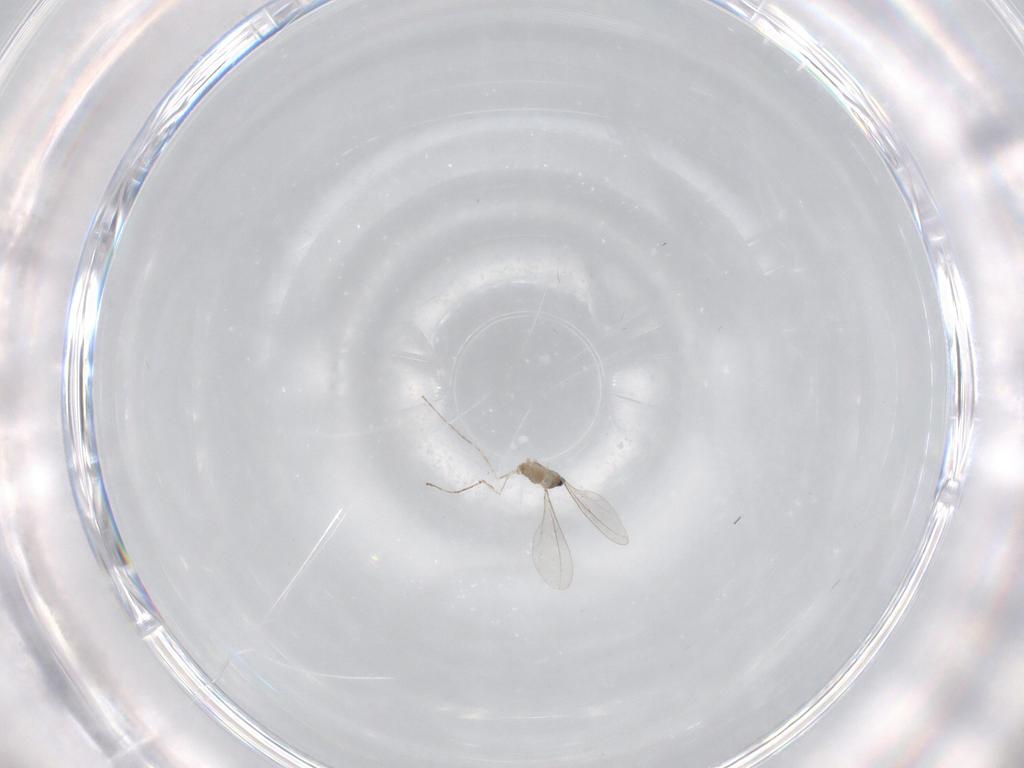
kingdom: Animalia
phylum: Arthropoda
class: Insecta
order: Diptera
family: Cecidomyiidae
